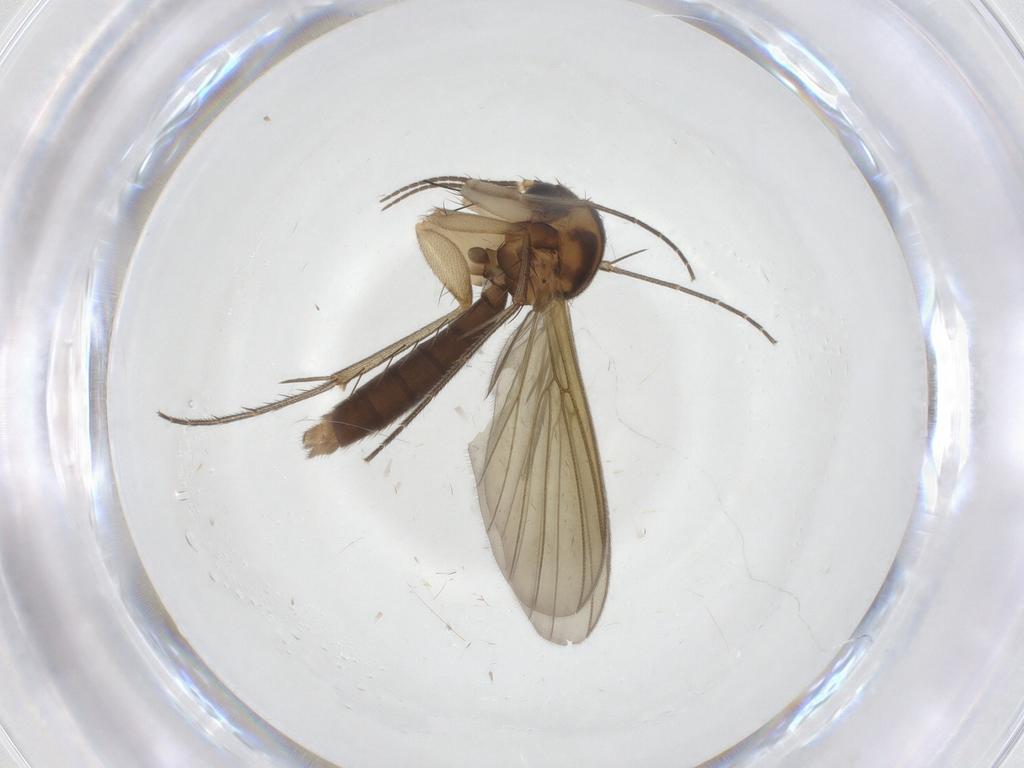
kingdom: Animalia
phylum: Arthropoda
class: Insecta
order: Diptera
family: Mycetophilidae
